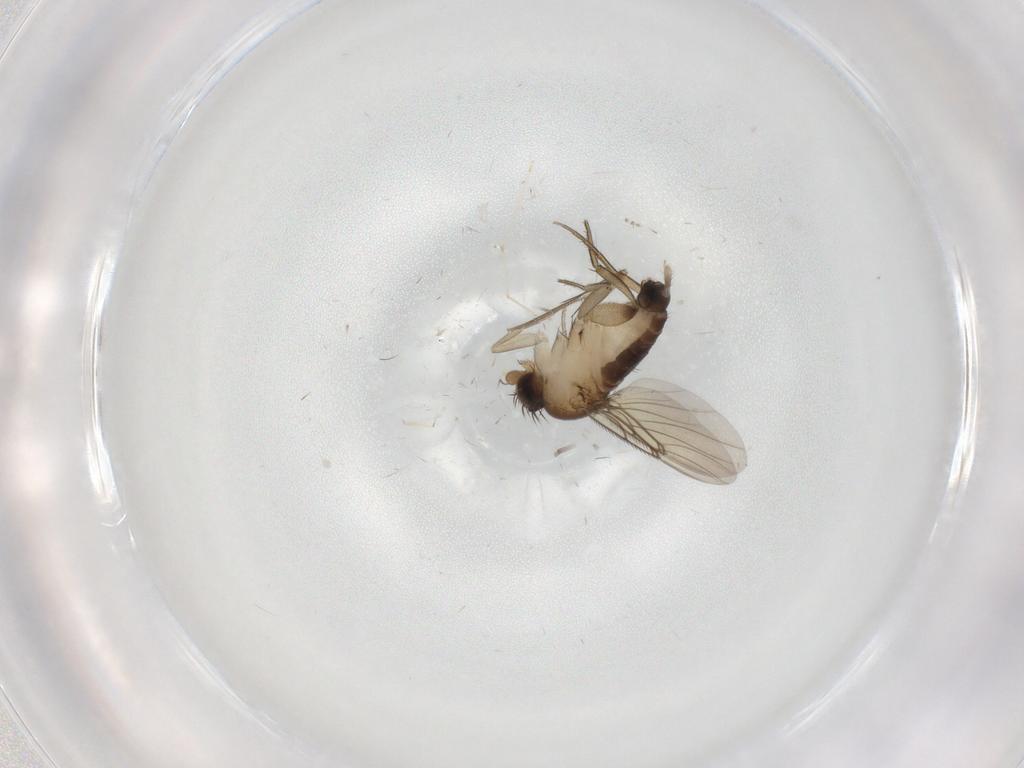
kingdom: Animalia
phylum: Arthropoda
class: Insecta
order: Diptera
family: Phoridae
